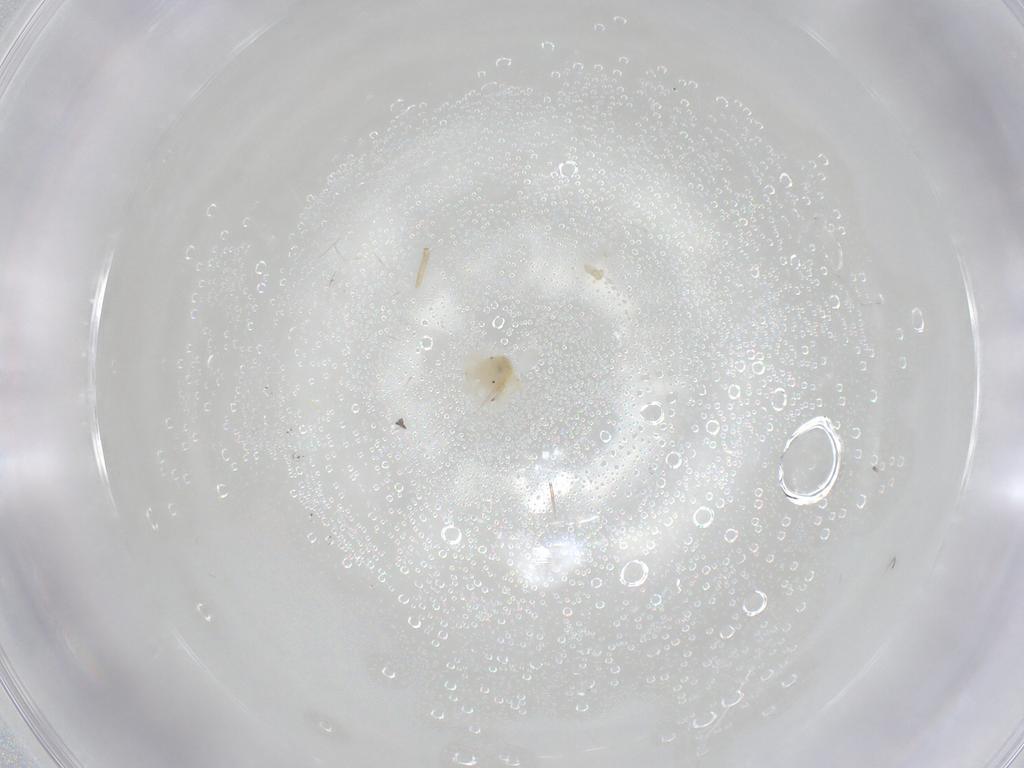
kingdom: Animalia
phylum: Arthropoda
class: Arachnida
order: Trombidiformes
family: Anystidae
